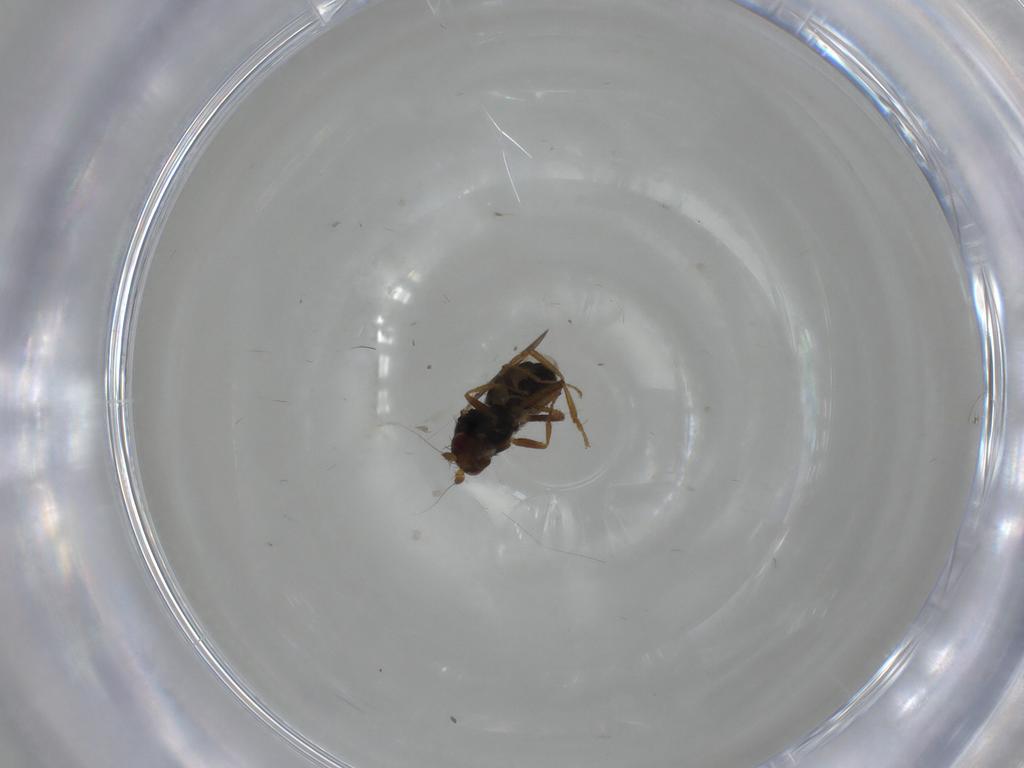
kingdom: Animalia
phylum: Arthropoda
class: Insecta
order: Diptera
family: Sphaeroceridae
